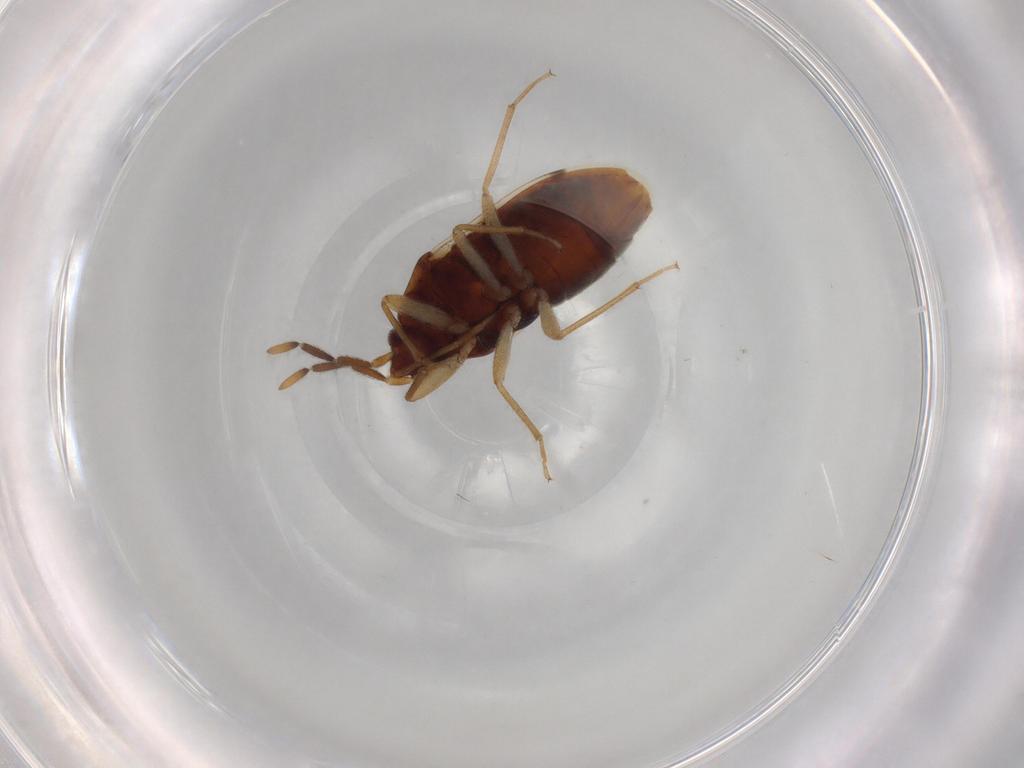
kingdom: Animalia
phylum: Arthropoda
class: Insecta
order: Hemiptera
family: Rhyparochromidae
